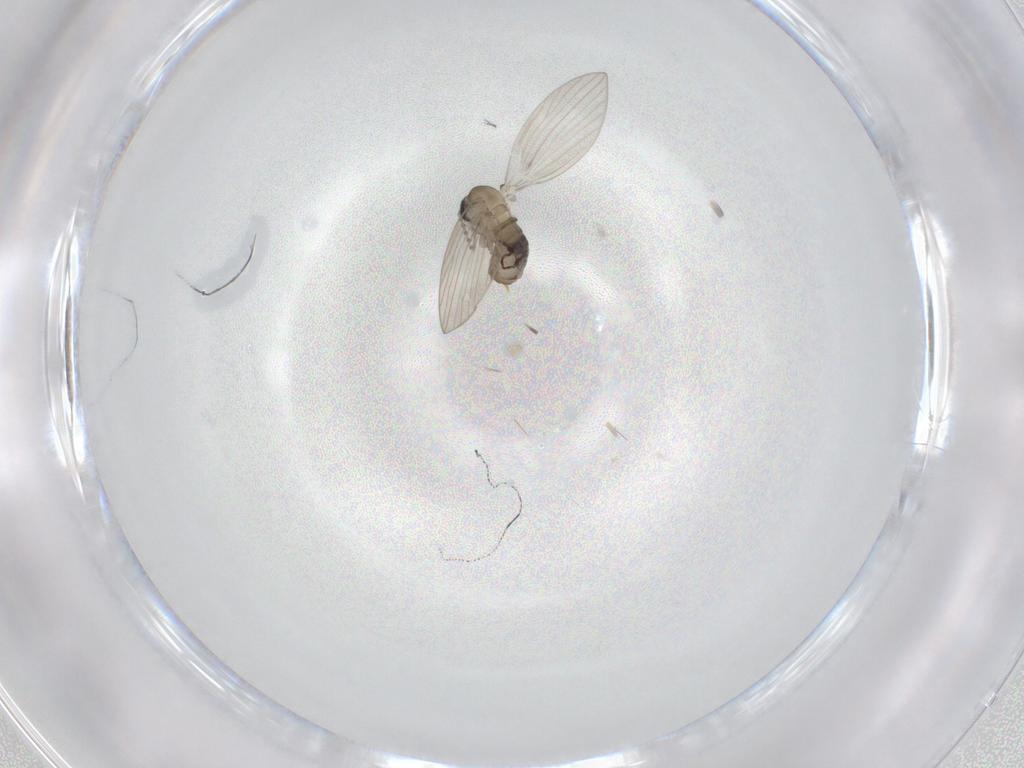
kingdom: Animalia
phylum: Arthropoda
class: Insecta
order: Diptera
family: Psychodidae
